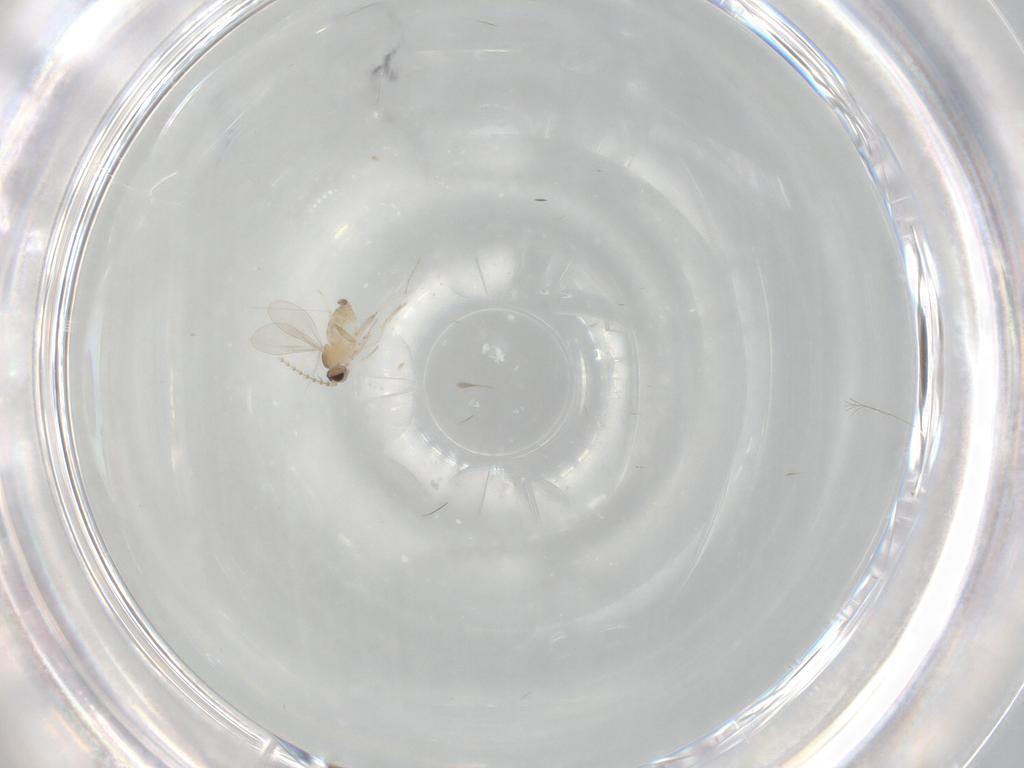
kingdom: Animalia
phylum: Arthropoda
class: Insecta
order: Diptera
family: Cecidomyiidae
